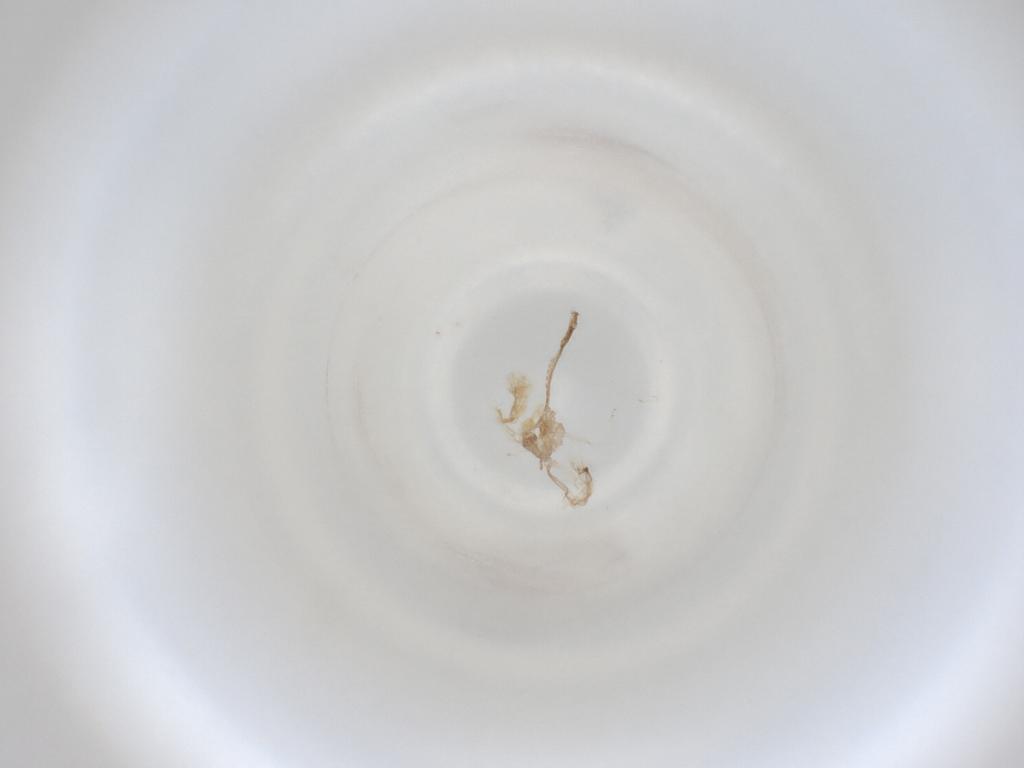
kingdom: Animalia
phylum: Arthropoda
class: Insecta
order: Diptera
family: Cecidomyiidae
